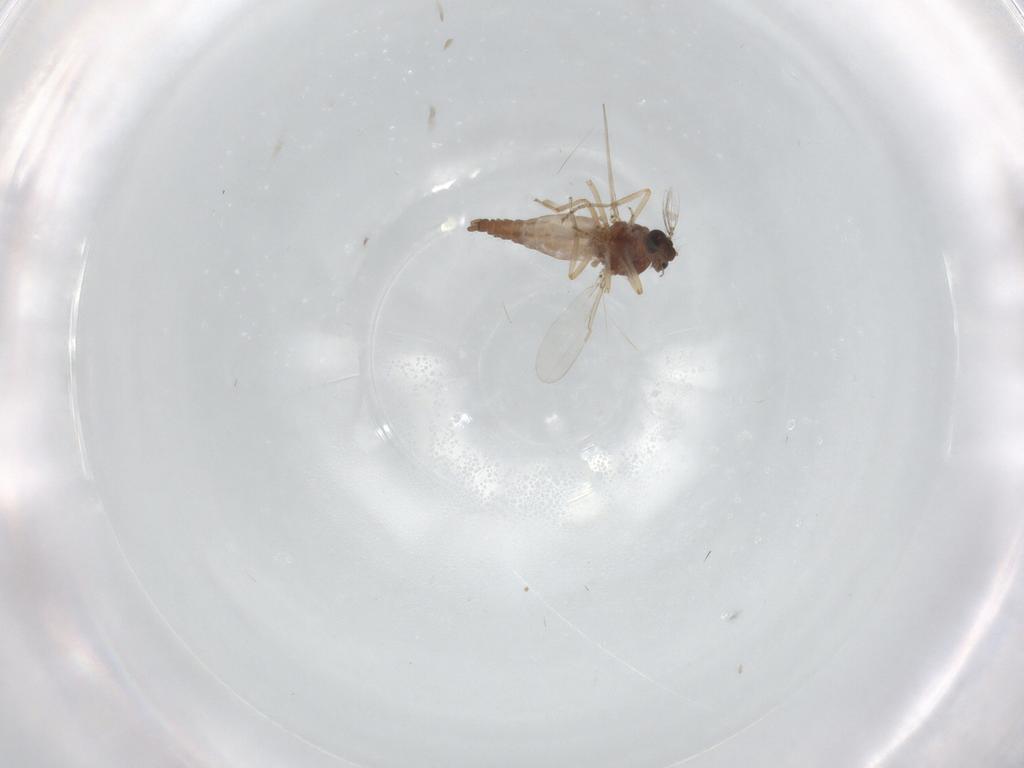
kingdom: Animalia
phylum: Arthropoda
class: Insecta
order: Diptera
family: Ceratopogonidae
